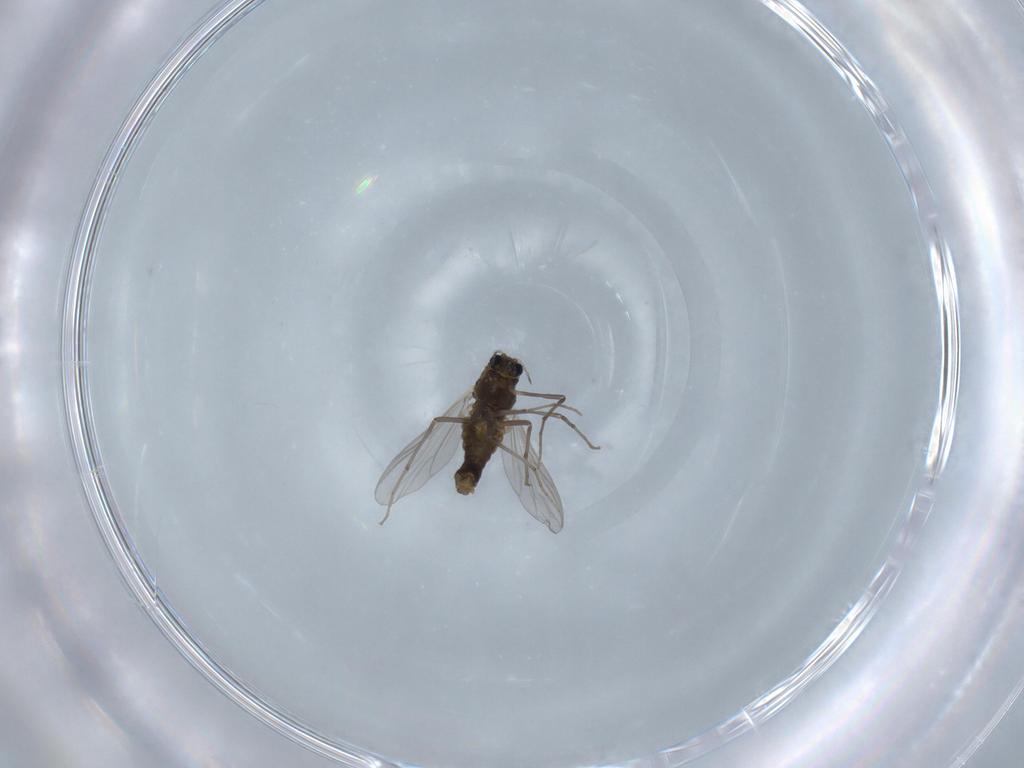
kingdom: Animalia
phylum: Arthropoda
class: Insecta
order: Diptera
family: Chironomidae
